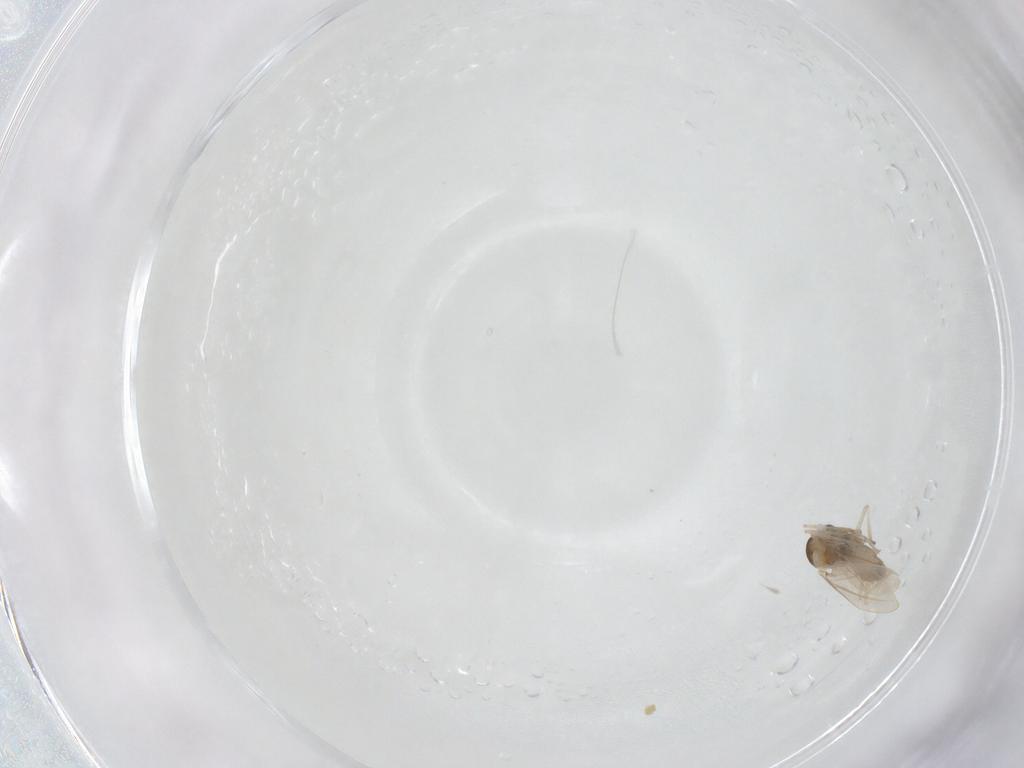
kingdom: Animalia
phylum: Arthropoda
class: Insecta
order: Diptera
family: Cecidomyiidae
